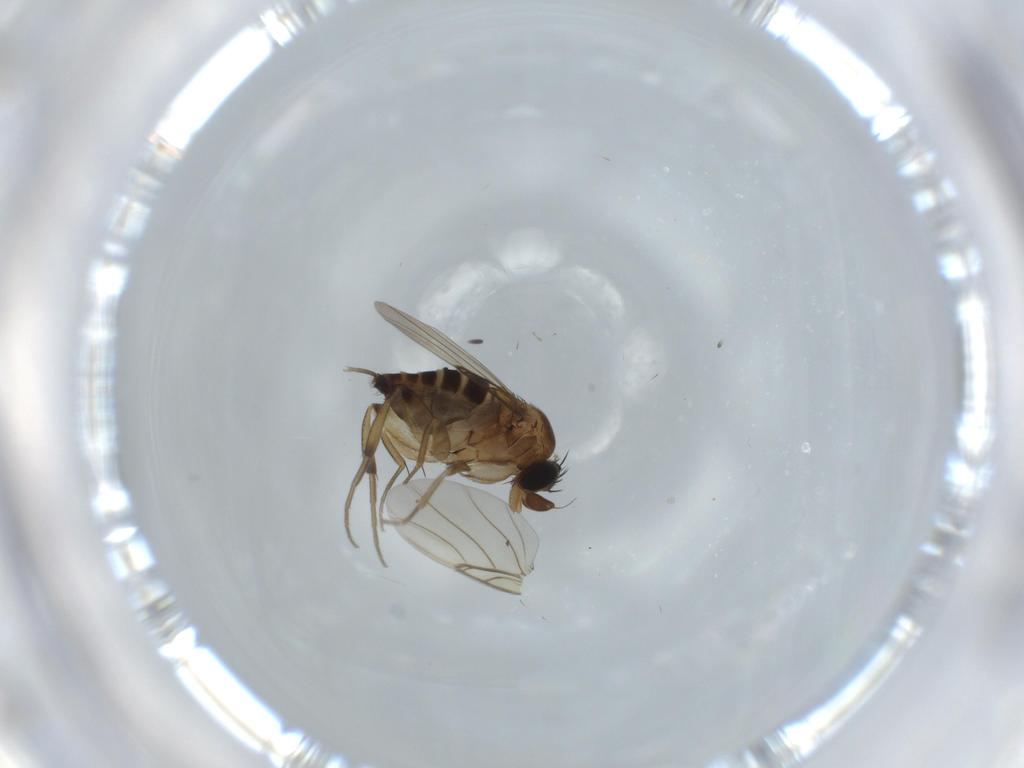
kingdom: Animalia
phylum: Arthropoda
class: Insecta
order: Diptera
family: Phoridae
